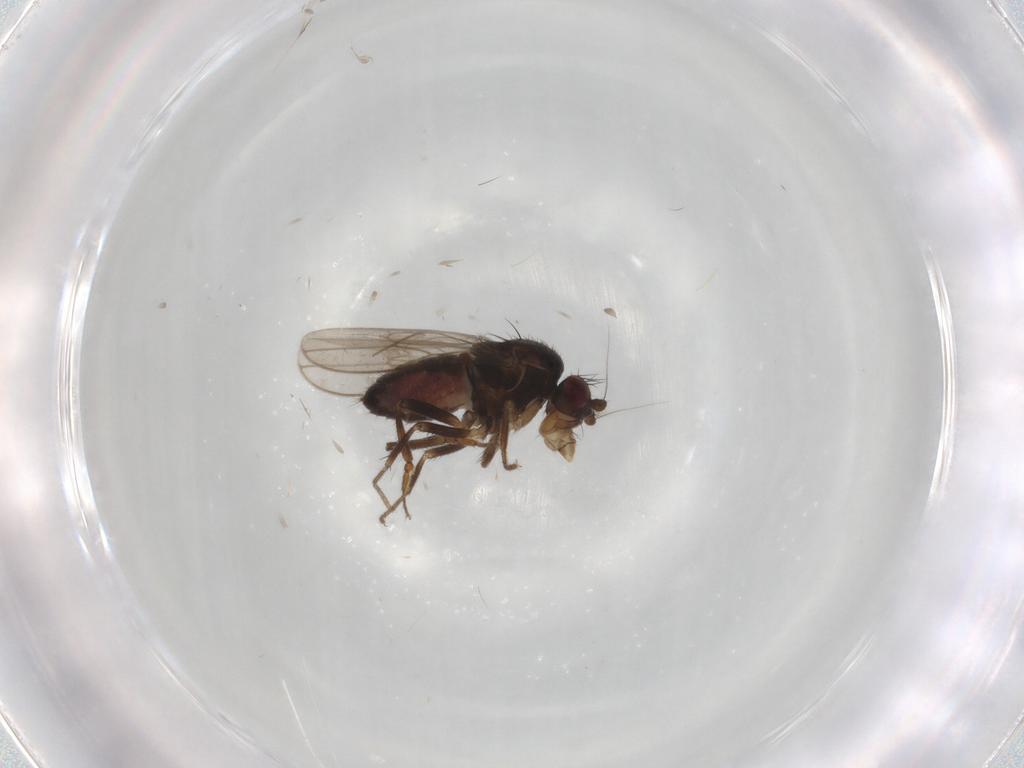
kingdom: Animalia
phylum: Arthropoda
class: Insecta
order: Diptera
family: Sphaeroceridae
